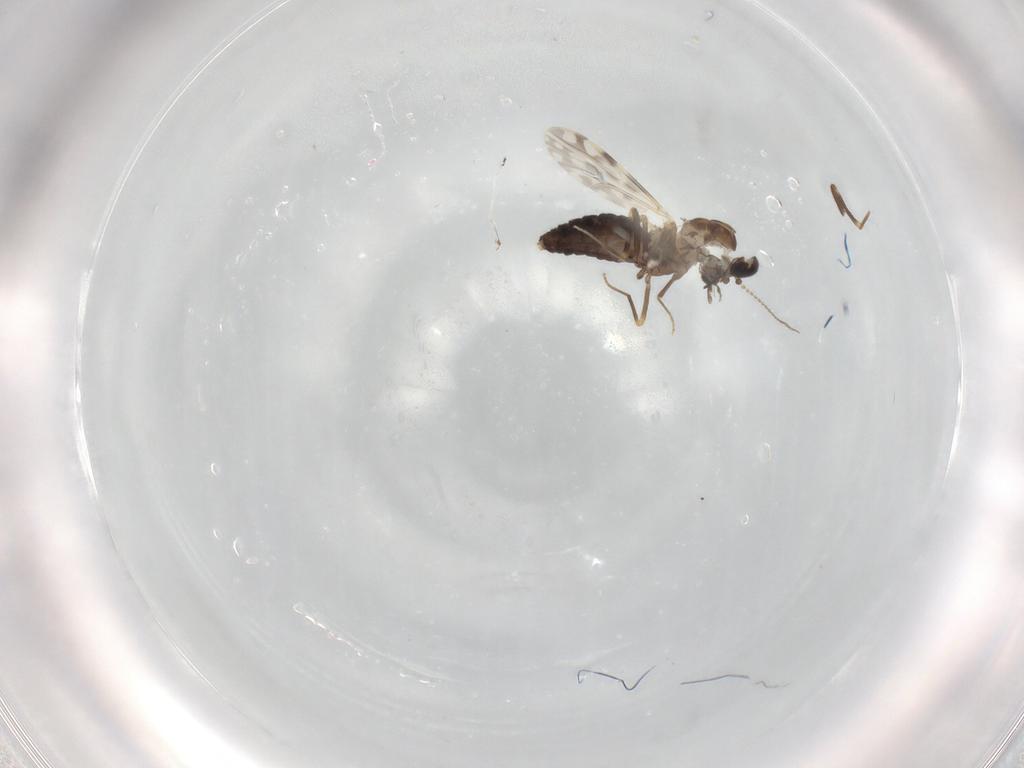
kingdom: Animalia
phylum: Arthropoda
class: Insecta
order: Diptera
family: Ceratopogonidae
